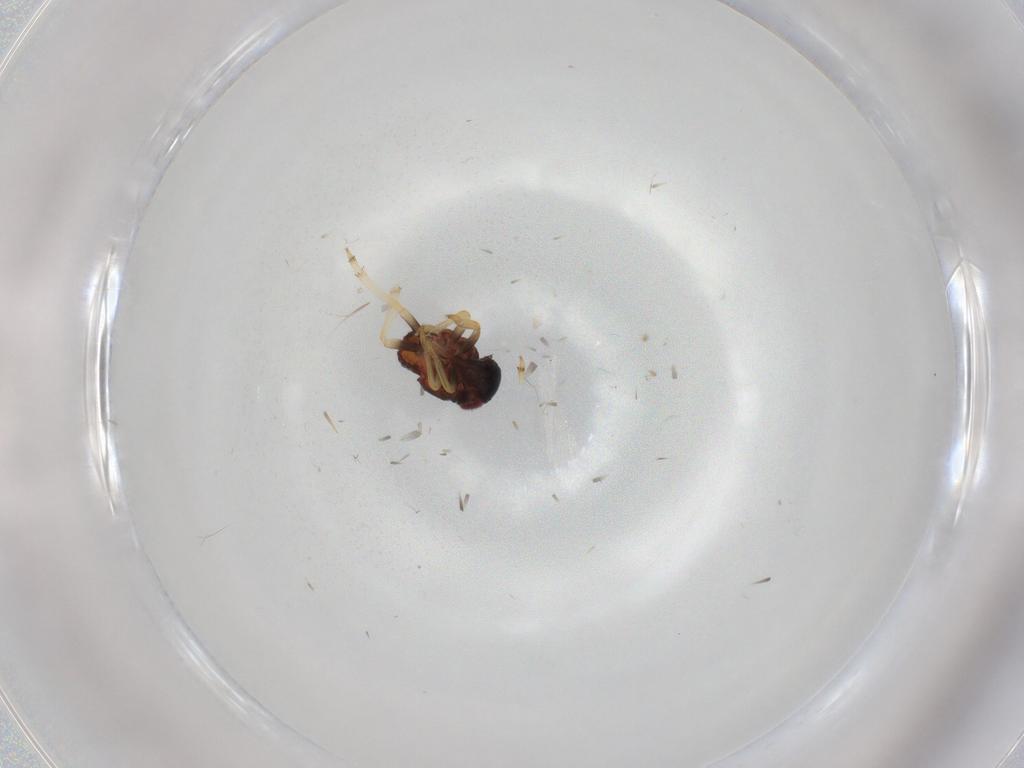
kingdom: Animalia
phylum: Arthropoda
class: Insecta
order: Hemiptera
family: Fulgoroidea_incertae_sedis
